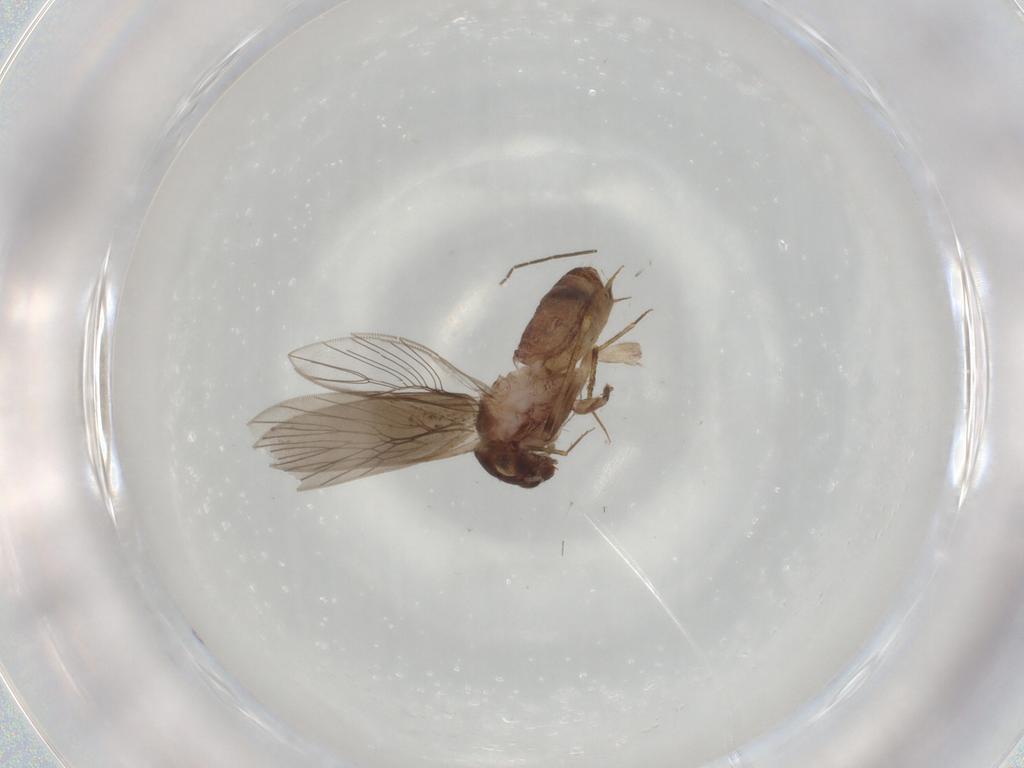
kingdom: Animalia
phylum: Arthropoda
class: Insecta
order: Psocodea
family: Lepidopsocidae
